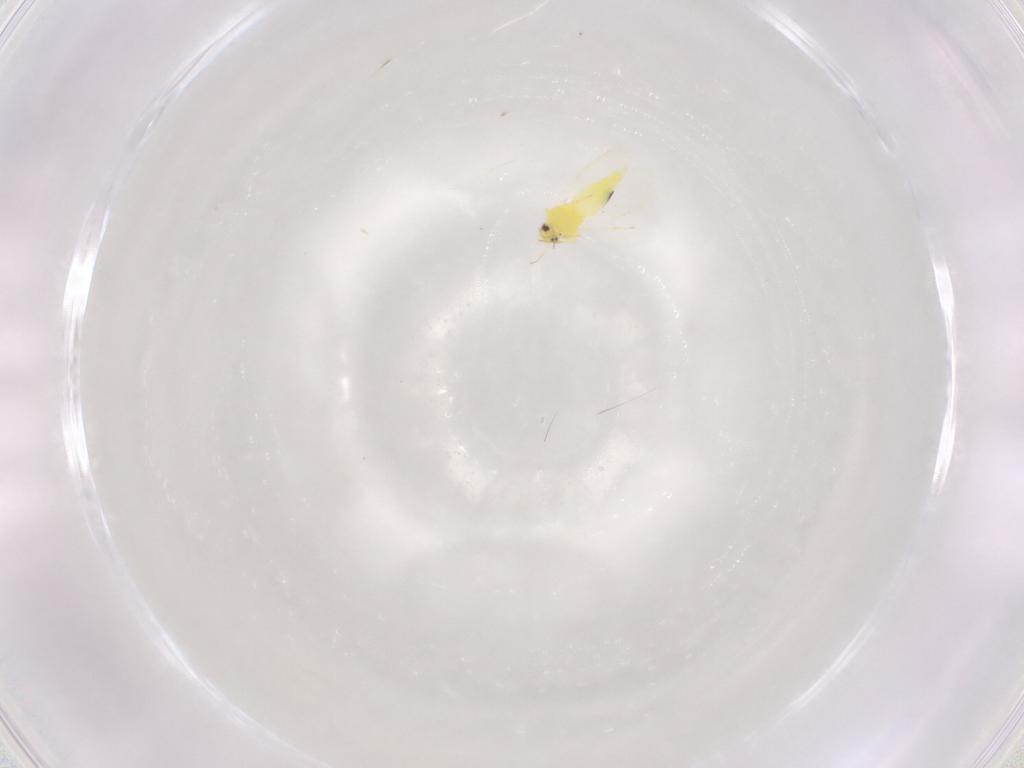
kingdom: Animalia
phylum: Arthropoda
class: Insecta
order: Hemiptera
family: Aleyrodidae
